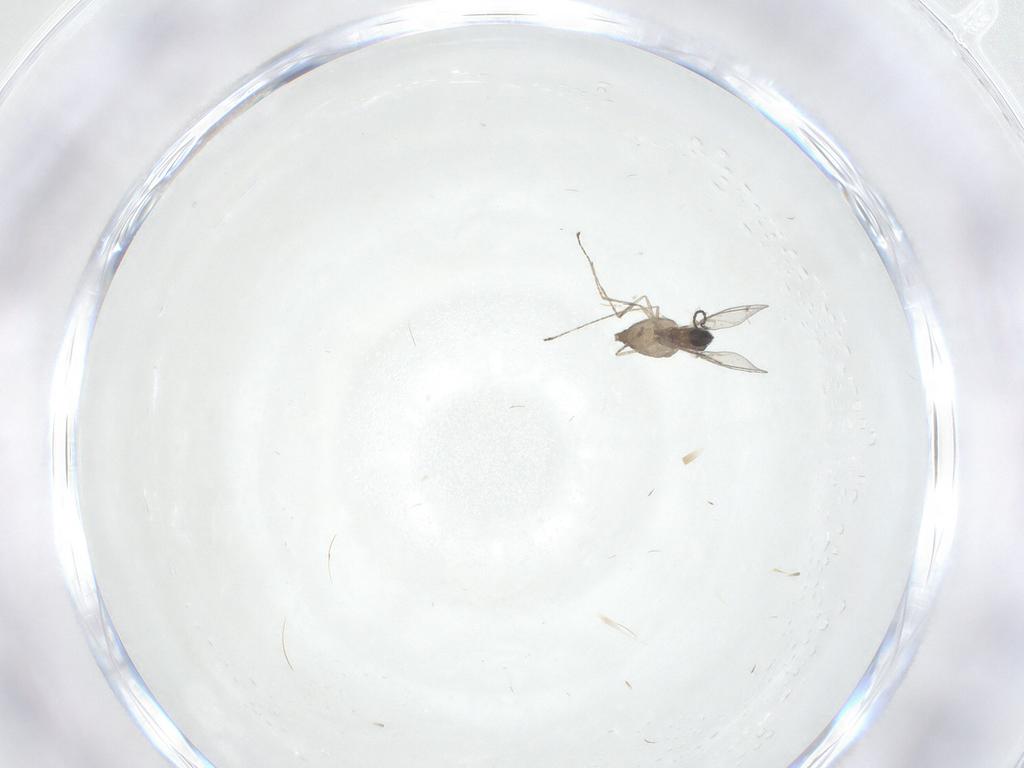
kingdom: Animalia
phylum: Arthropoda
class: Insecta
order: Diptera
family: Cecidomyiidae
